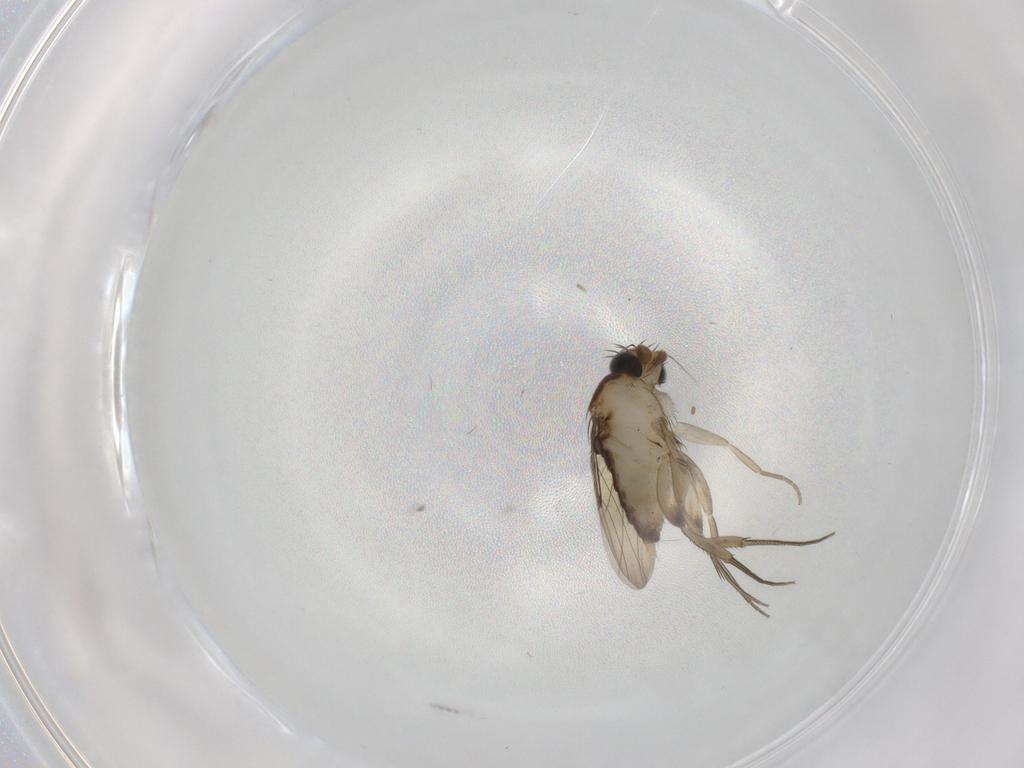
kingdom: Animalia
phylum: Arthropoda
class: Insecta
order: Diptera
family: Phoridae
